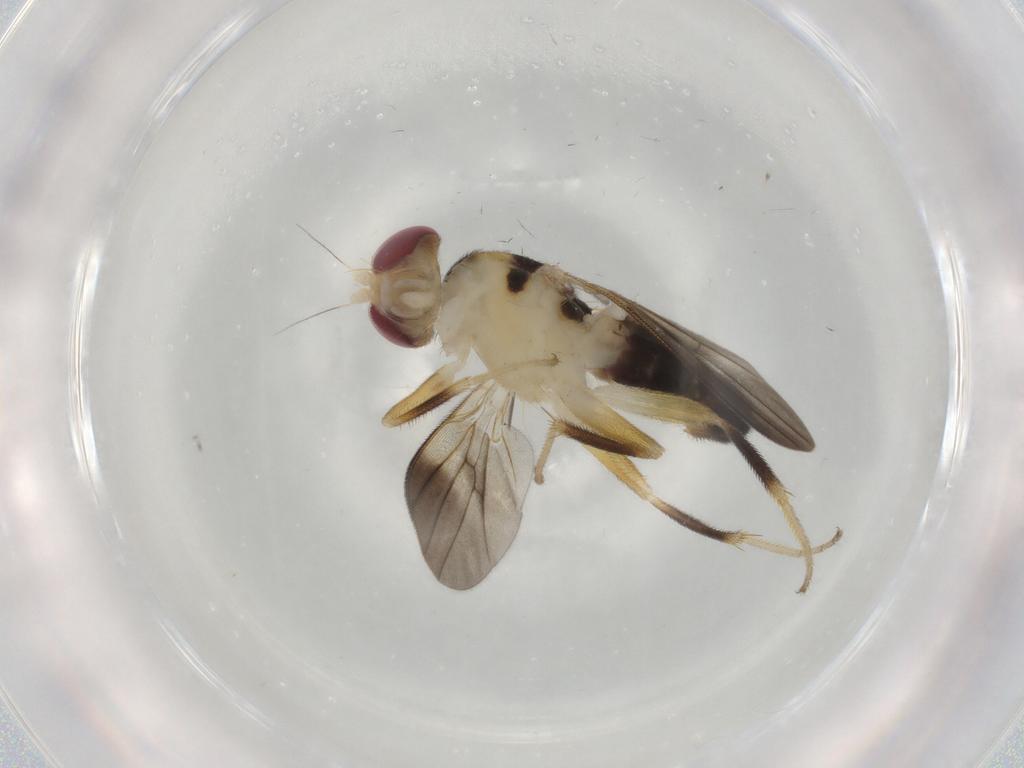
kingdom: Animalia
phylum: Arthropoda
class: Insecta
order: Diptera
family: Clusiidae
